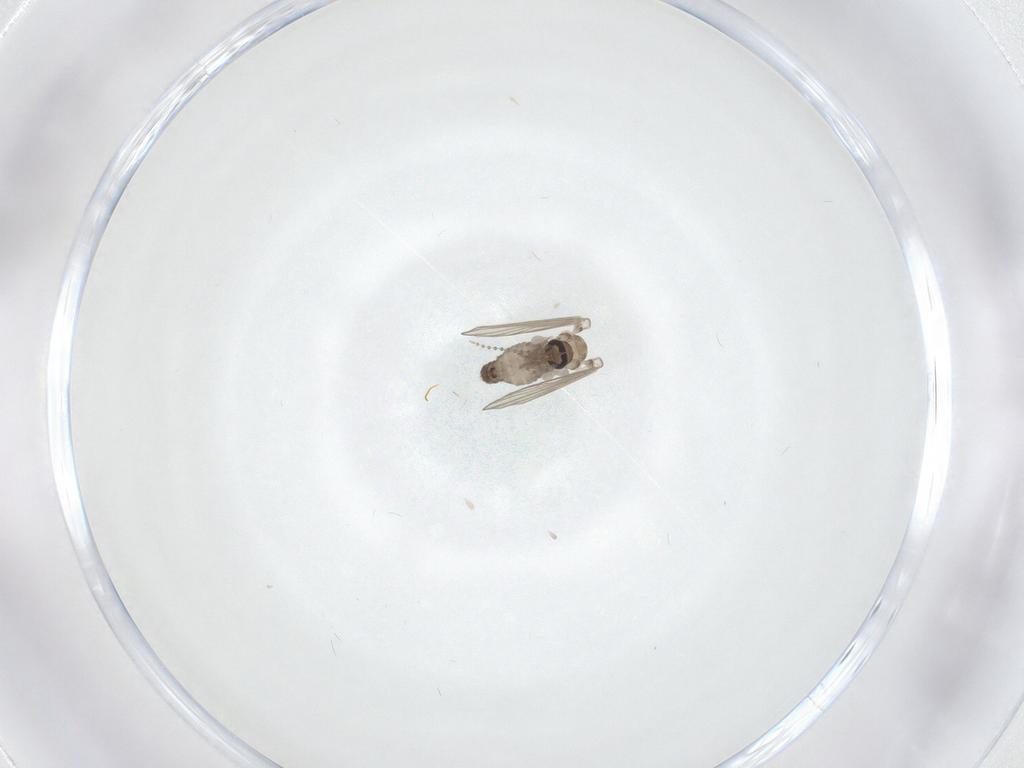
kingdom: Animalia
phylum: Arthropoda
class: Insecta
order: Diptera
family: Psychodidae
